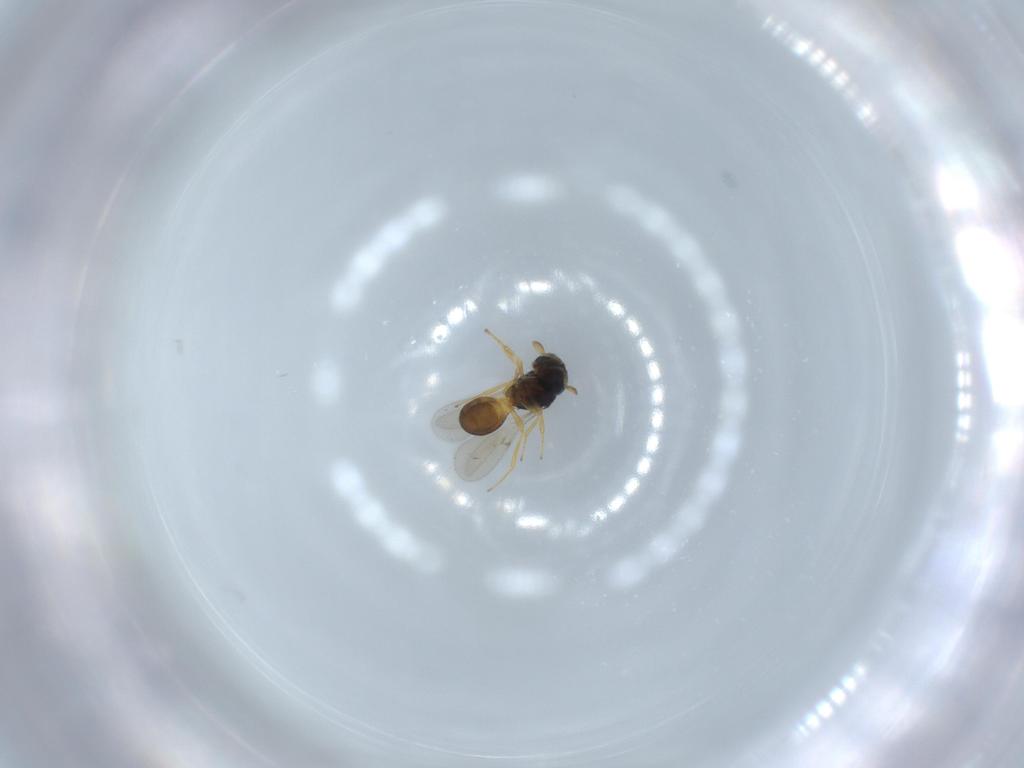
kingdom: Animalia
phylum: Arthropoda
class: Insecta
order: Hymenoptera
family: Scelionidae
